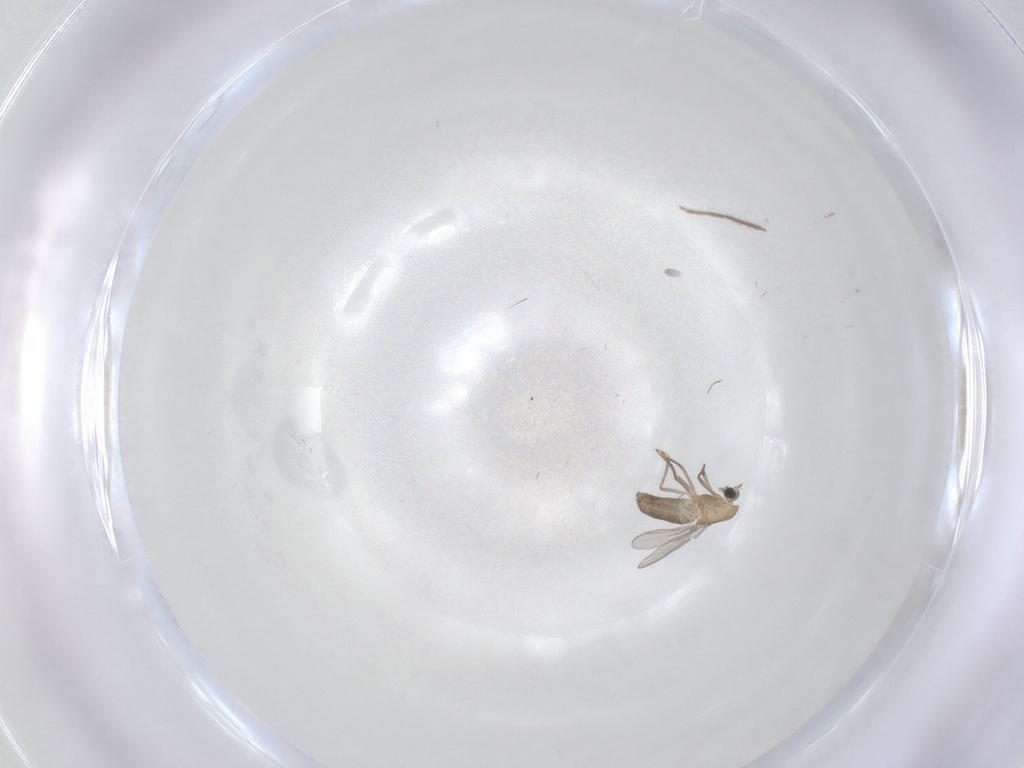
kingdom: Animalia
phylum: Arthropoda
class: Insecta
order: Diptera
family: Chironomidae
